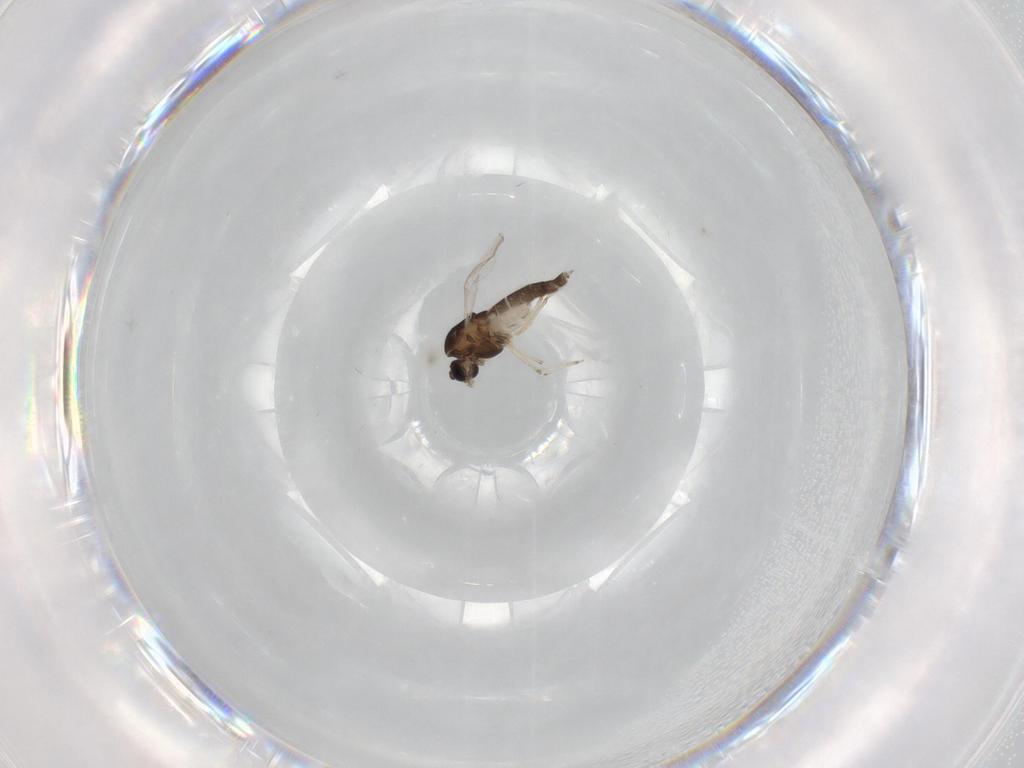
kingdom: Animalia
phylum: Arthropoda
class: Insecta
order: Diptera
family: Chironomidae
